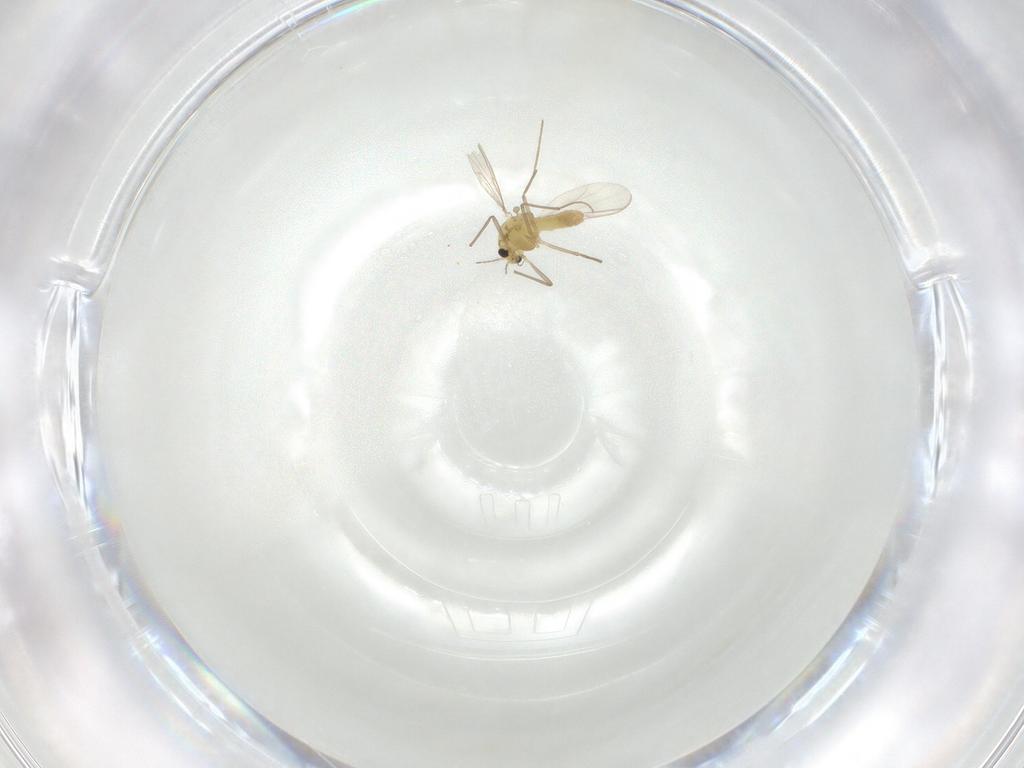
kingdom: Animalia
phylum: Arthropoda
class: Insecta
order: Diptera
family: Chironomidae
